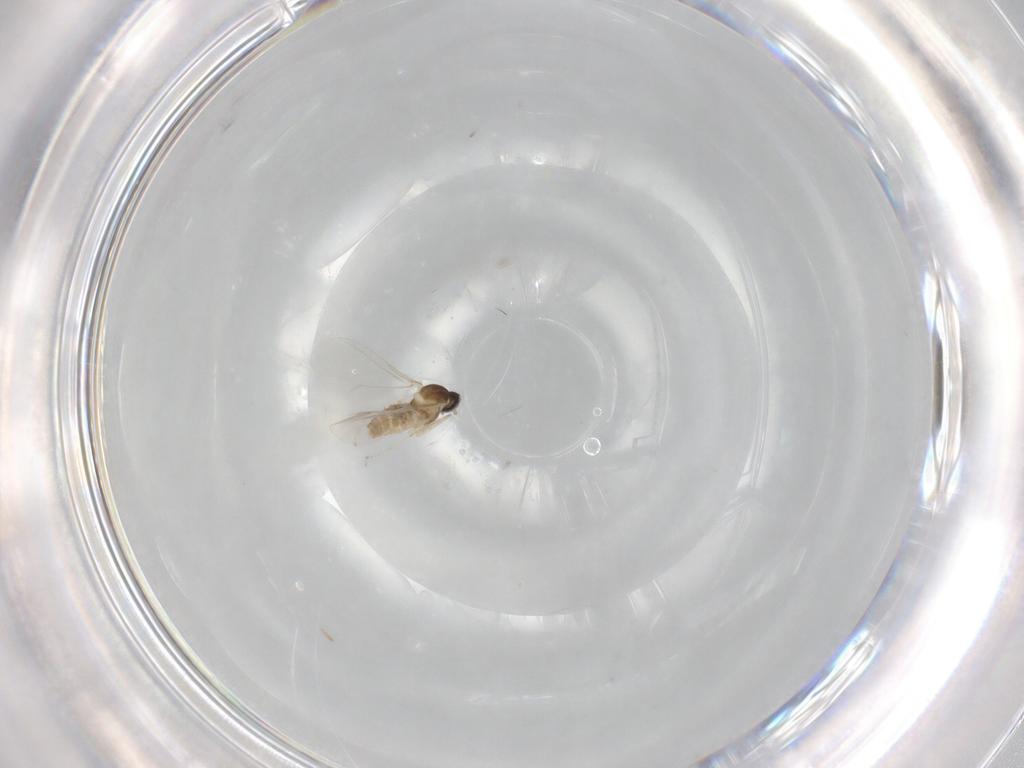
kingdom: Animalia
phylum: Arthropoda
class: Insecta
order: Diptera
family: Cecidomyiidae
